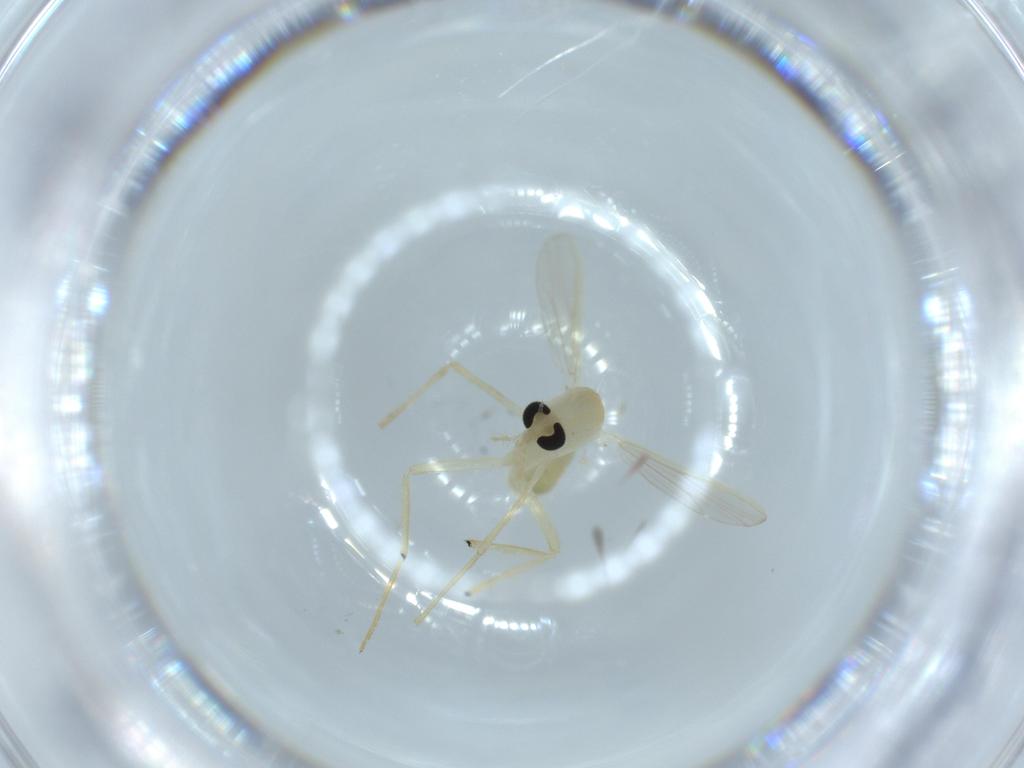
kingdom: Animalia
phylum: Arthropoda
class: Insecta
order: Diptera
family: Chironomidae
